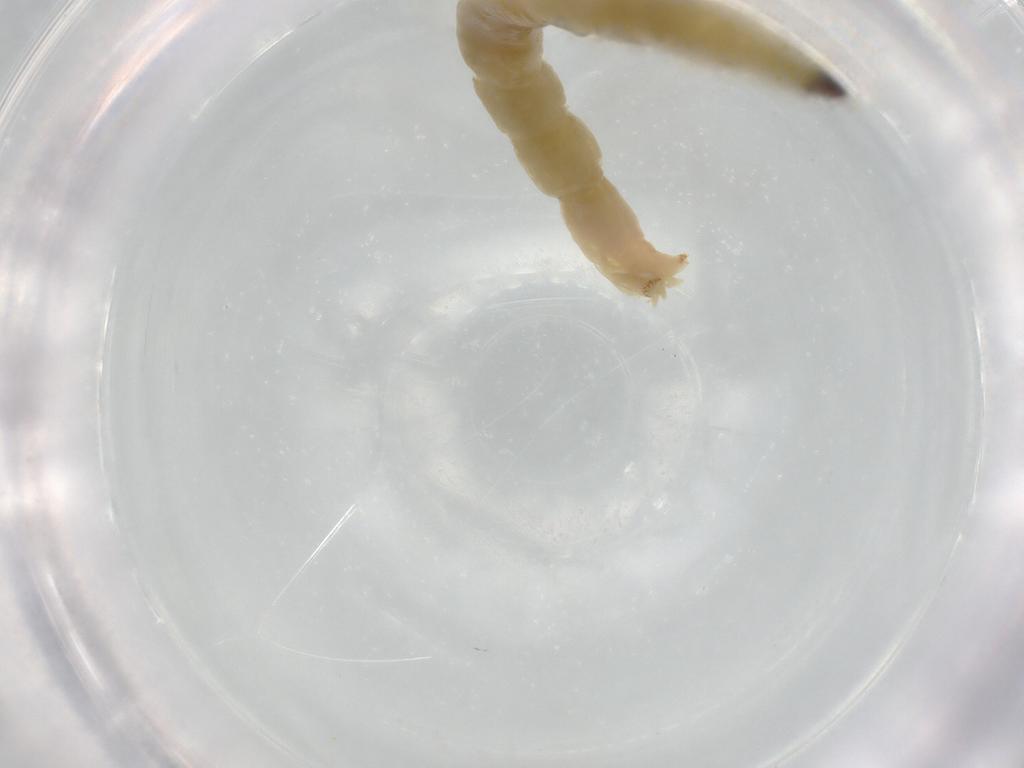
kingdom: Animalia
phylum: Arthropoda
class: Insecta
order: Diptera
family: Chironomidae
